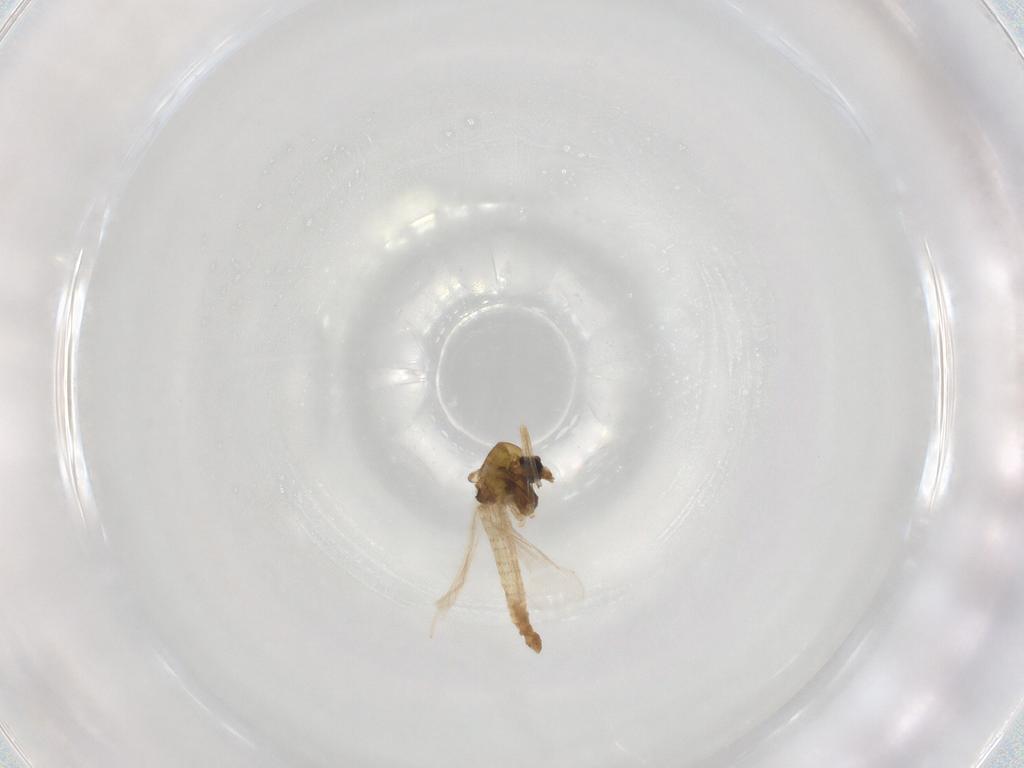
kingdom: Animalia
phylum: Arthropoda
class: Insecta
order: Diptera
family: Chironomidae
